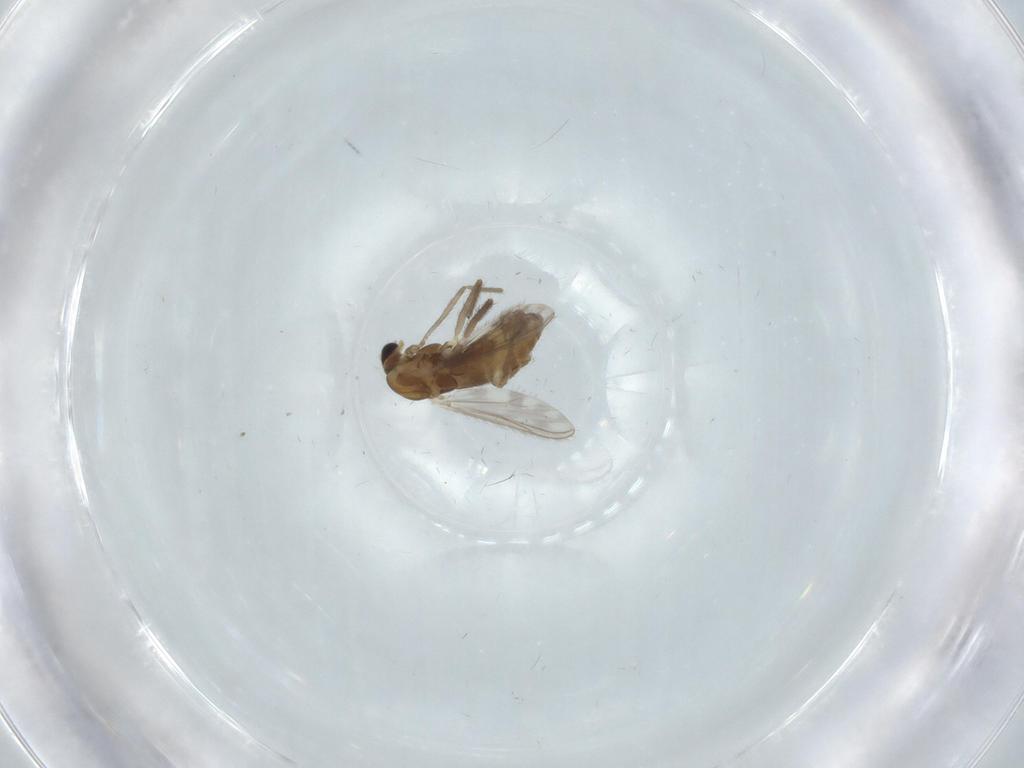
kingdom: Animalia
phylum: Arthropoda
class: Insecta
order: Diptera
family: Chironomidae
